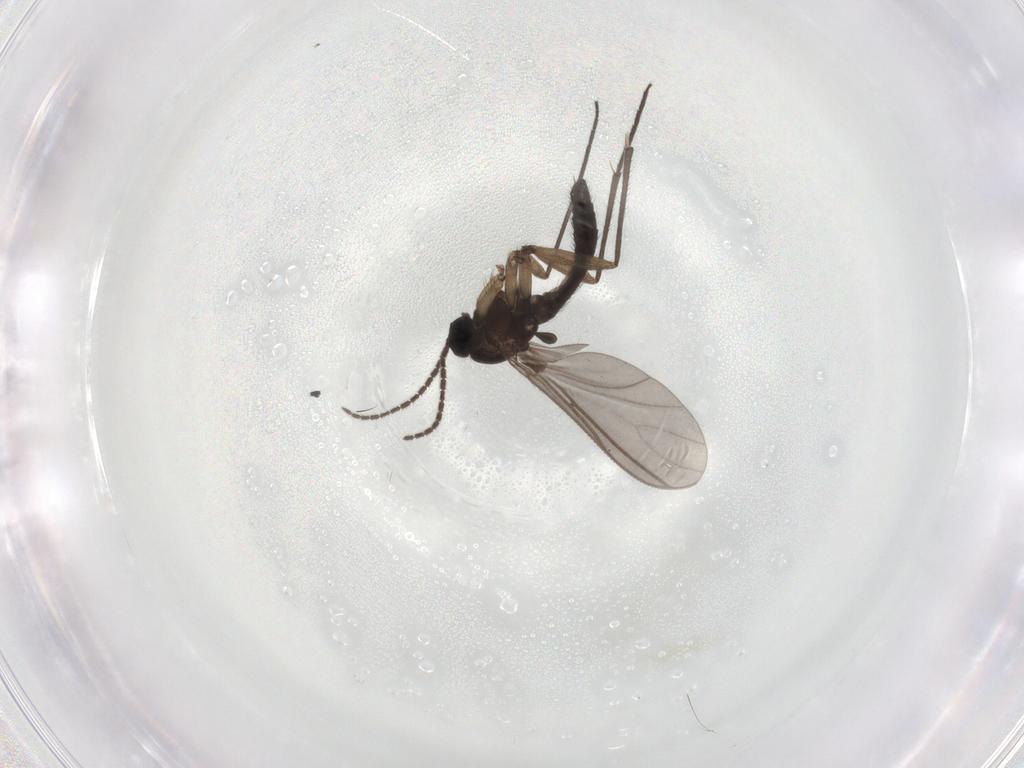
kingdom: Animalia
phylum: Arthropoda
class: Insecta
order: Diptera
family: Sciaridae
